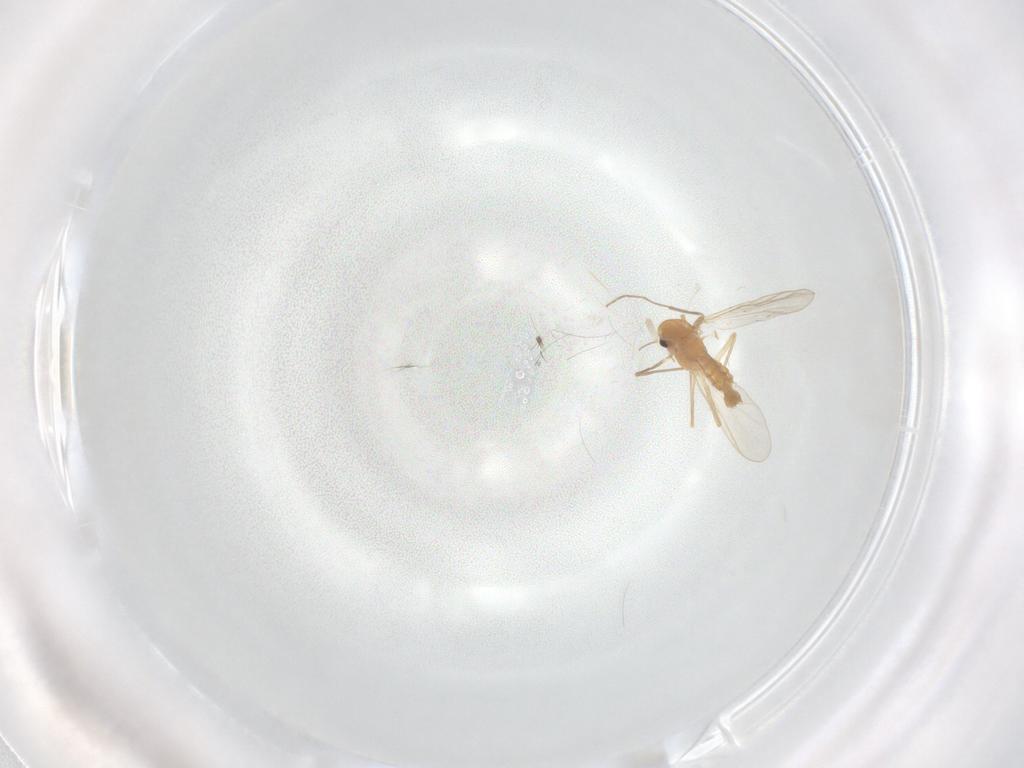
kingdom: Animalia
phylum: Arthropoda
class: Insecta
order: Diptera
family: Chironomidae
